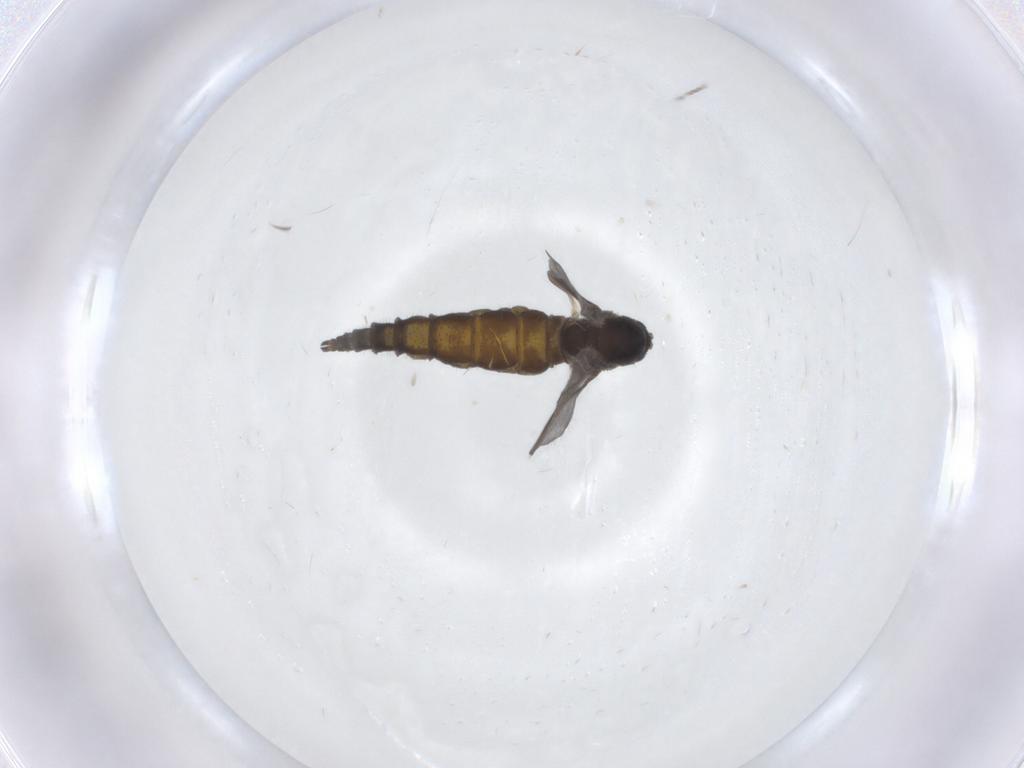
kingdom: Animalia
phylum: Arthropoda
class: Insecta
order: Diptera
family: Sciaridae
